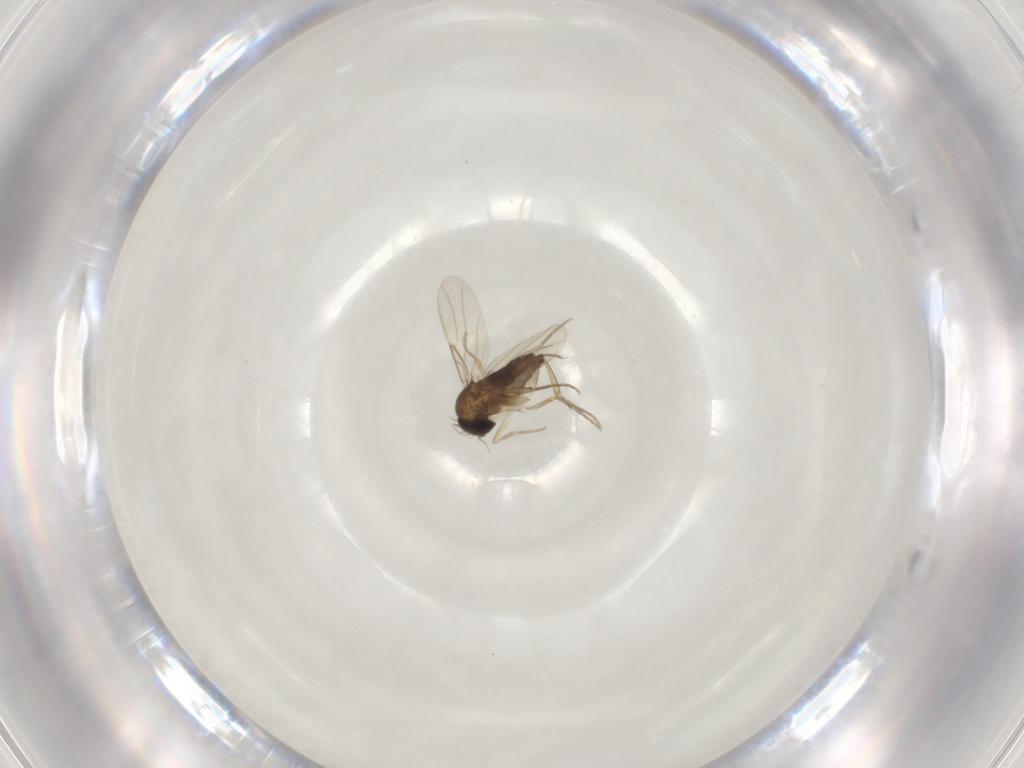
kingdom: Animalia
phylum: Arthropoda
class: Insecta
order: Diptera
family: Phoridae
